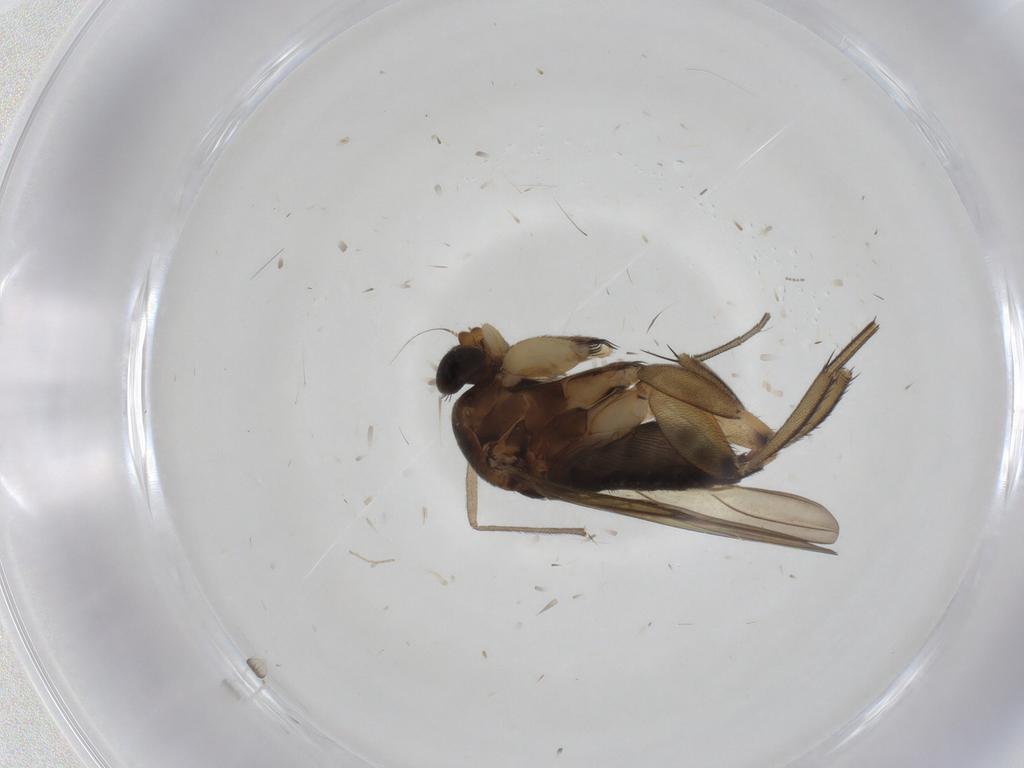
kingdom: Animalia
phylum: Arthropoda
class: Insecta
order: Diptera
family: Phoridae
